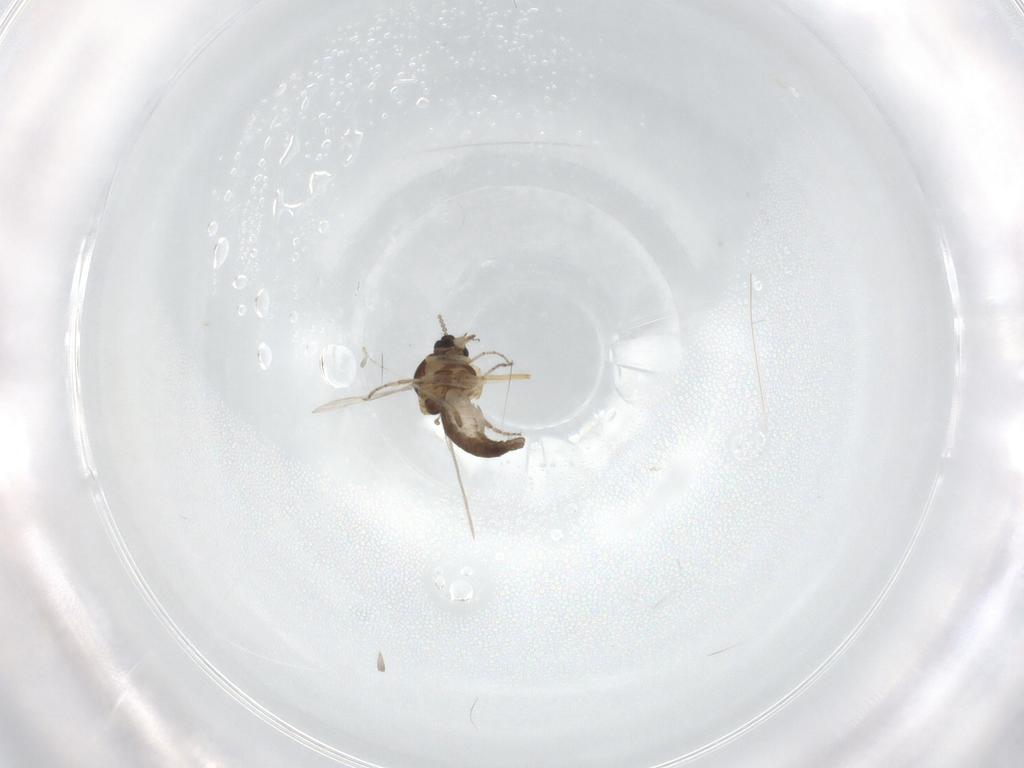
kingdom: Animalia
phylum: Arthropoda
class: Insecta
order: Diptera
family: Ceratopogonidae
